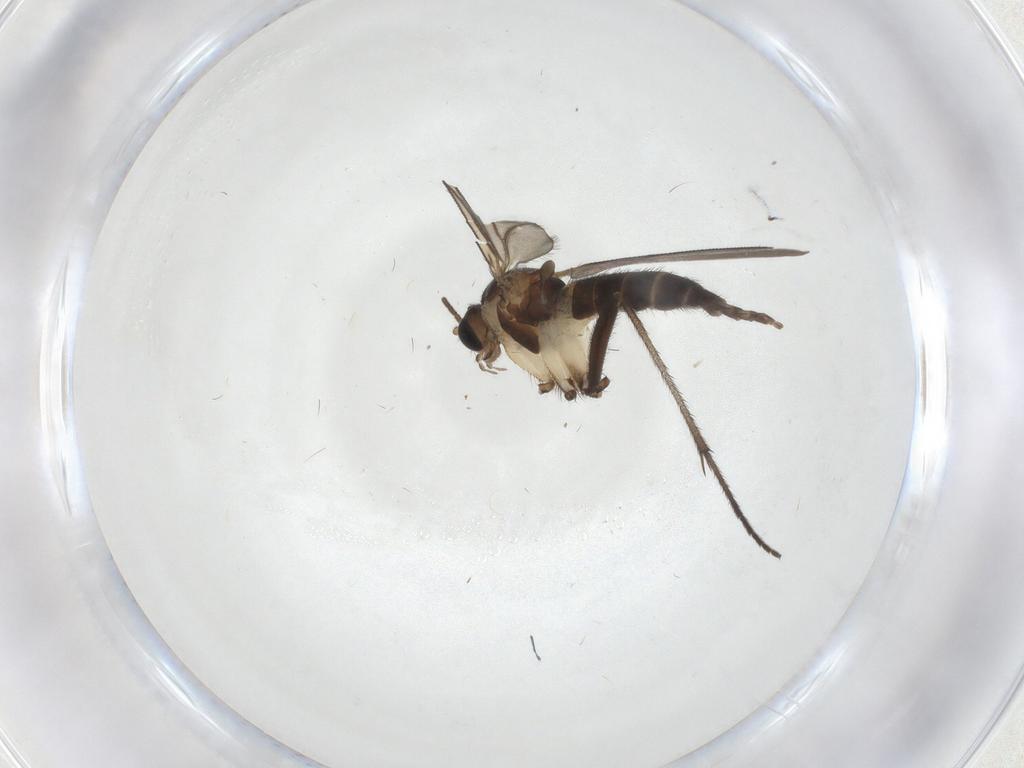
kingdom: Animalia
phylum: Arthropoda
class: Insecta
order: Diptera
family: Sciaridae
